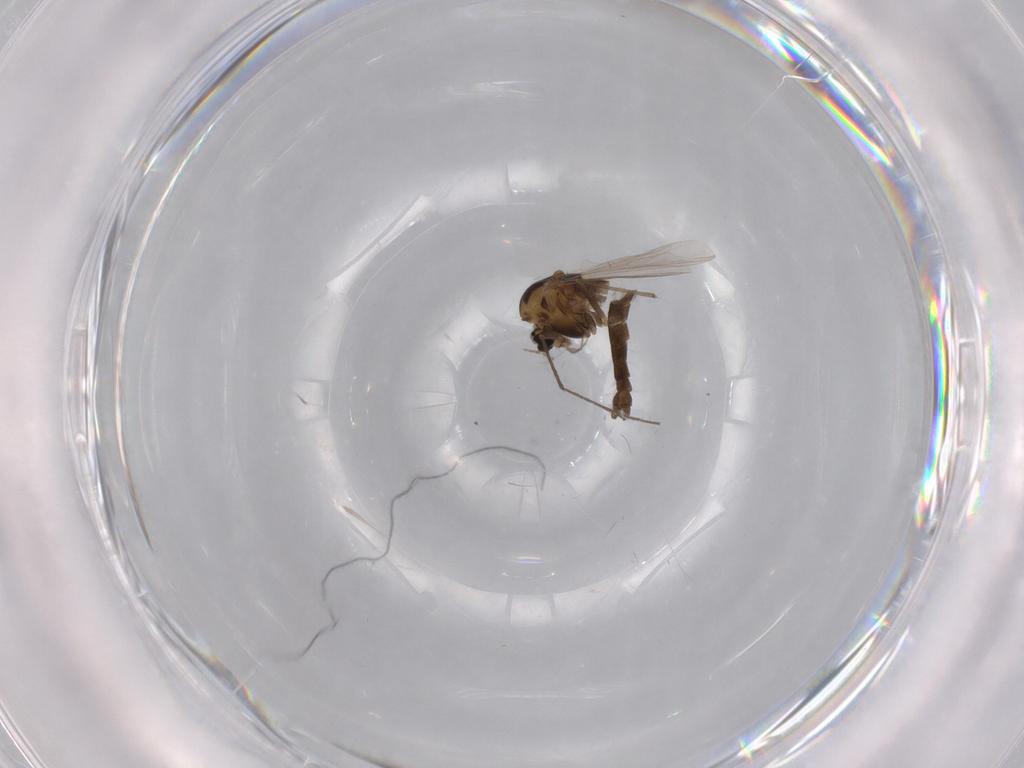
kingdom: Animalia
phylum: Arthropoda
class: Insecta
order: Diptera
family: Chironomidae
